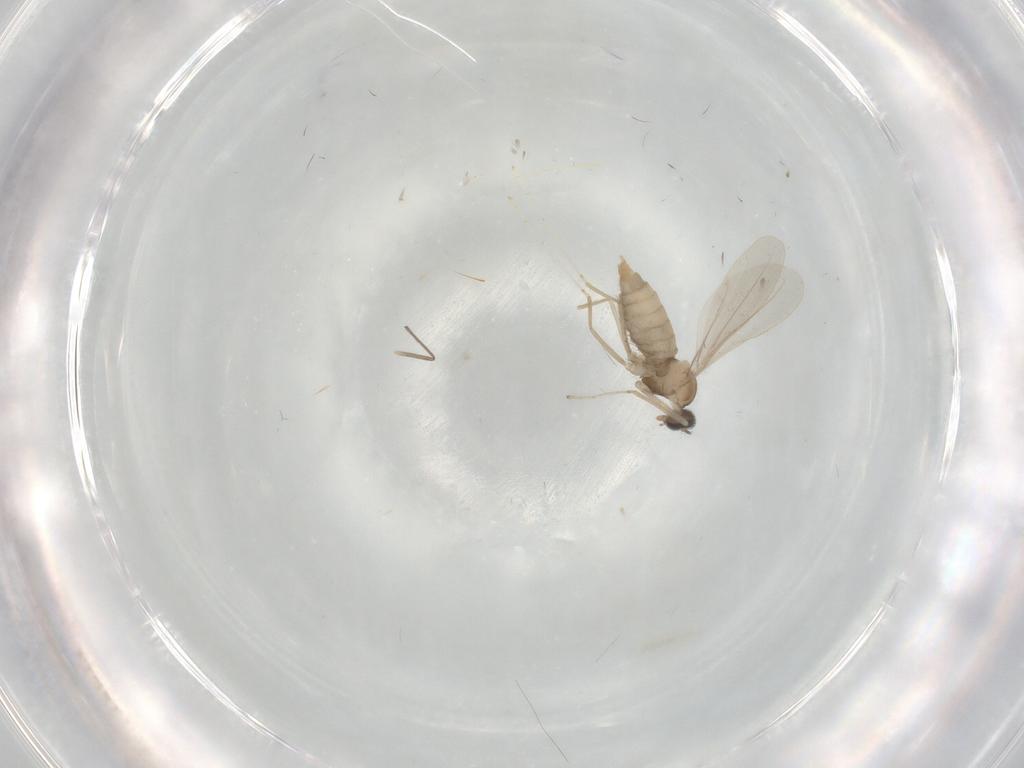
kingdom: Animalia
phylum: Arthropoda
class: Insecta
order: Diptera
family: Cecidomyiidae
